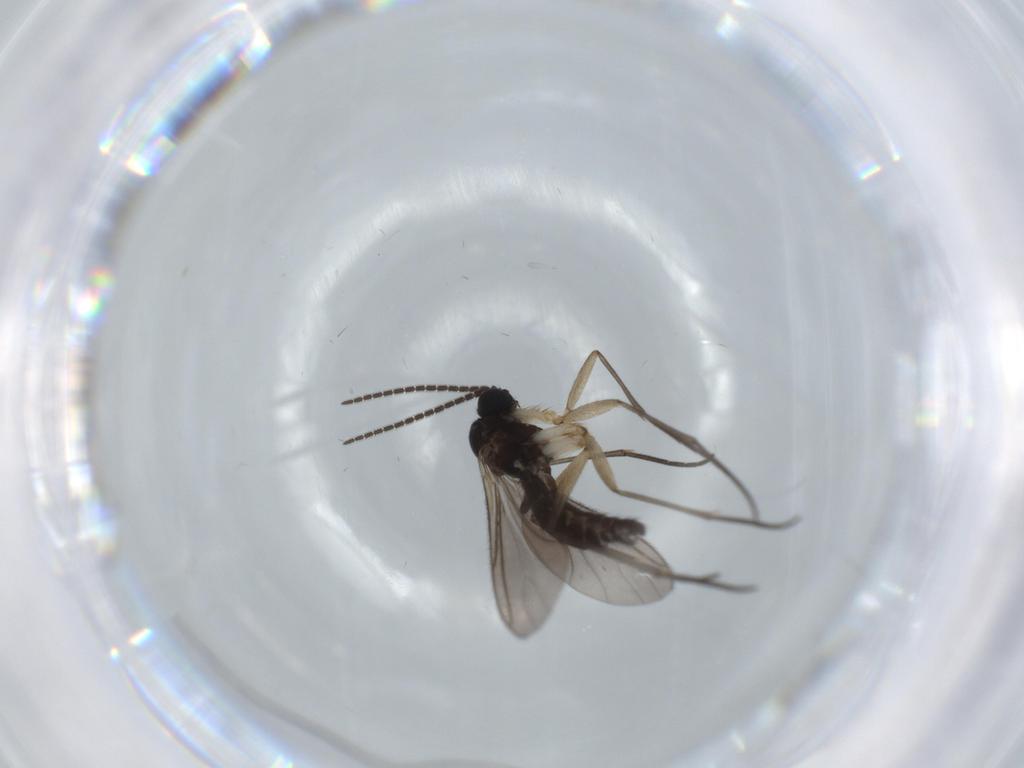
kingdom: Animalia
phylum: Arthropoda
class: Insecta
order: Diptera
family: Sciaridae
